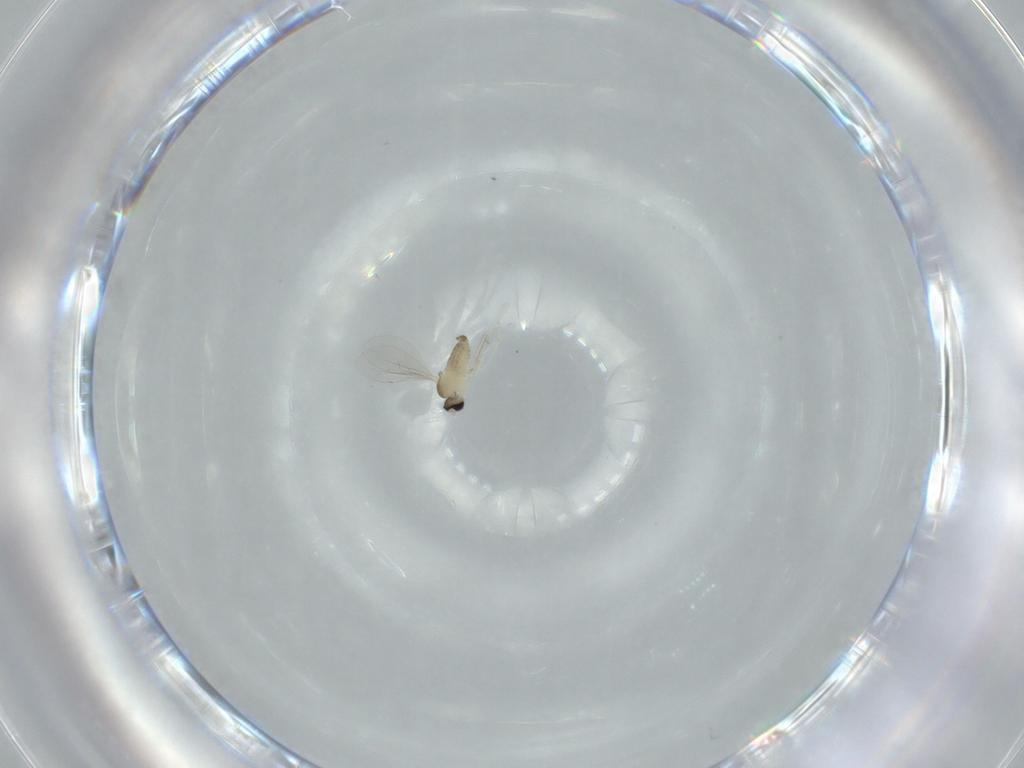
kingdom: Animalia
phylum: Arthropoda
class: Insecta
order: Diptera
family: Cecidomyiidae
